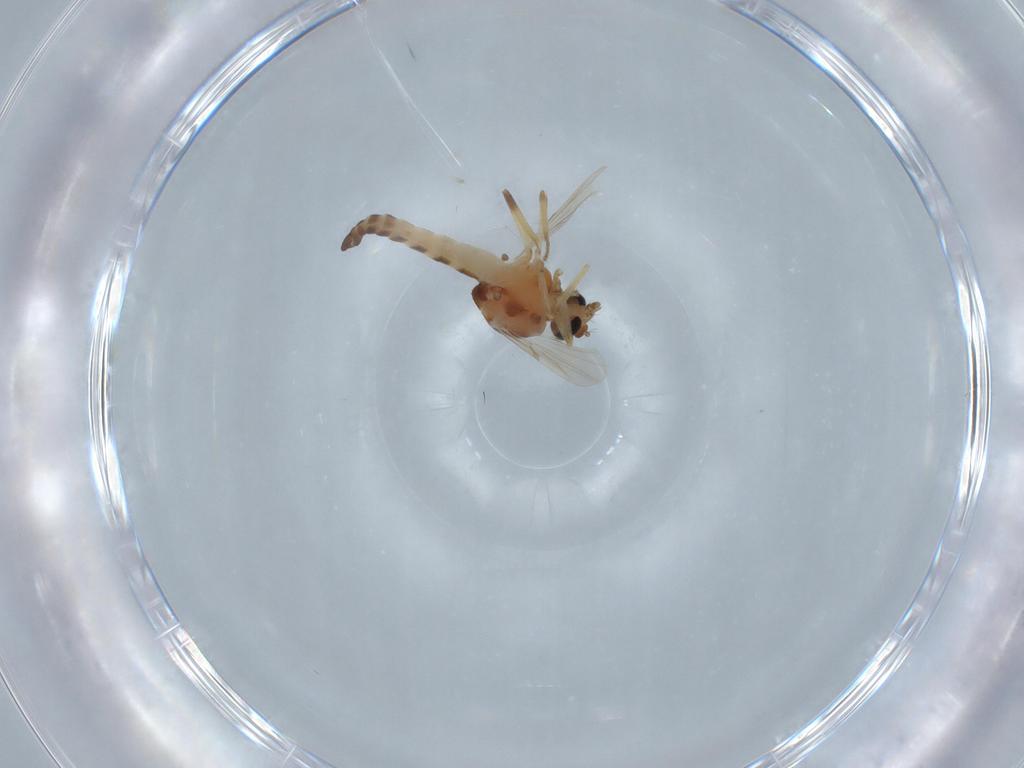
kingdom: Animalia
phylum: Arthropoda
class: Insecta
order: Diptera
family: Ceratopogonidae
